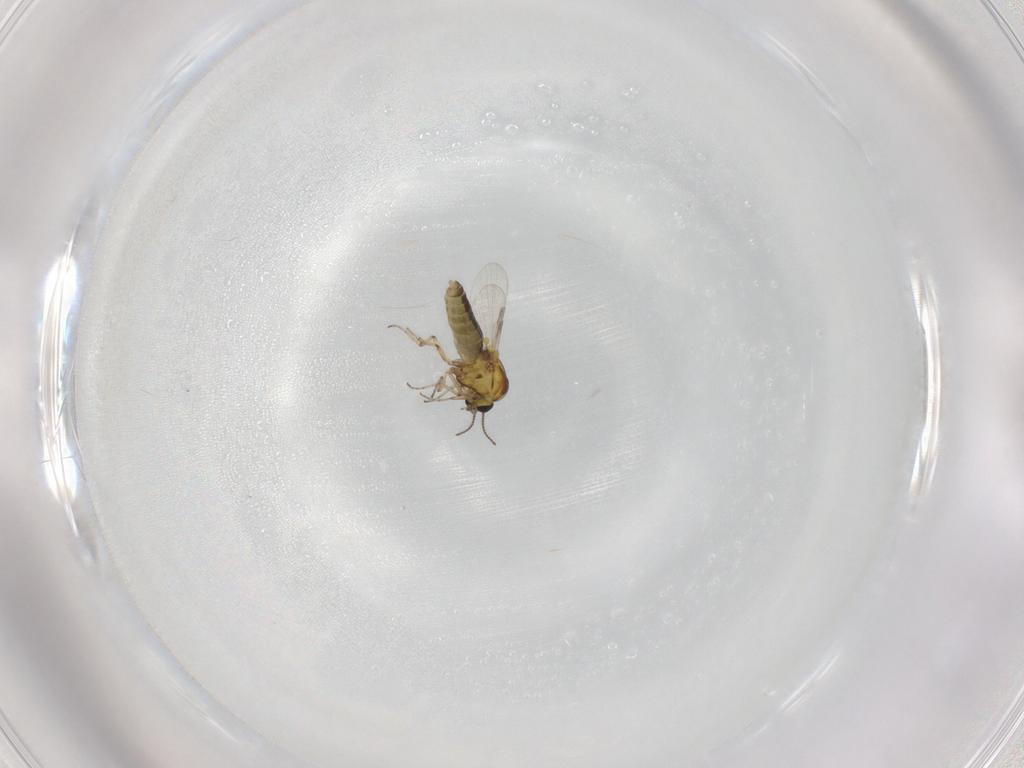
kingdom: Animalia
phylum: Arthropoda
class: Insecta
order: Diptera
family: Ceratopogonidae
